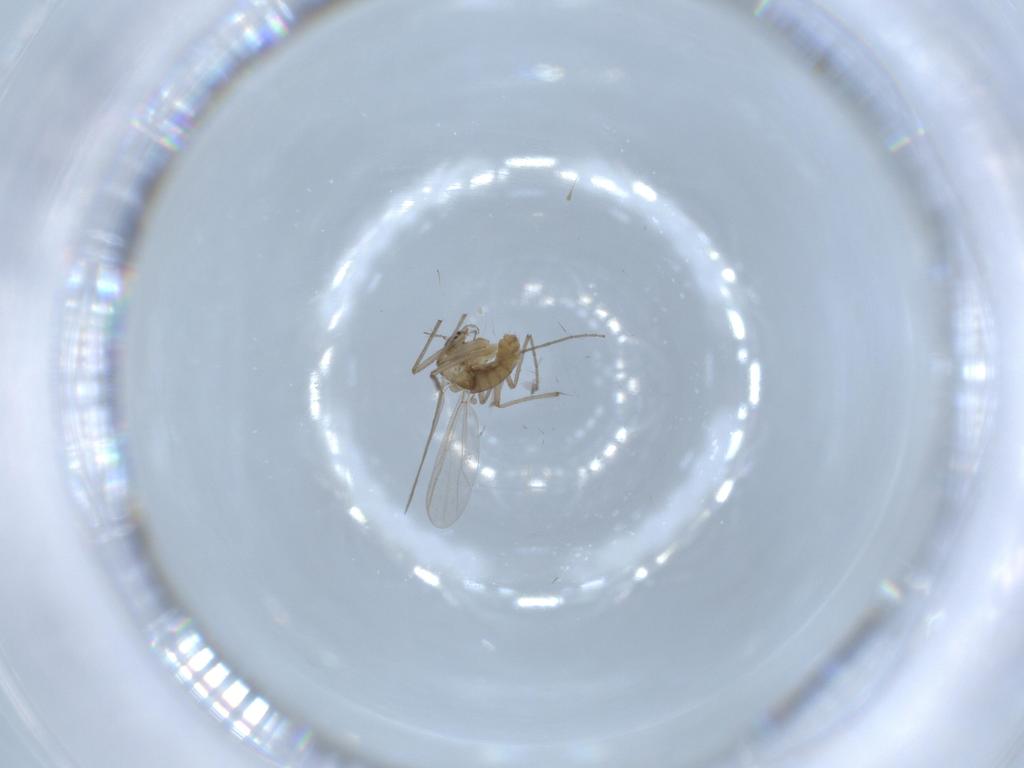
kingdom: Animalia
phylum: Arthropoda
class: Insecta
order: Diptera
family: Chironomidae
